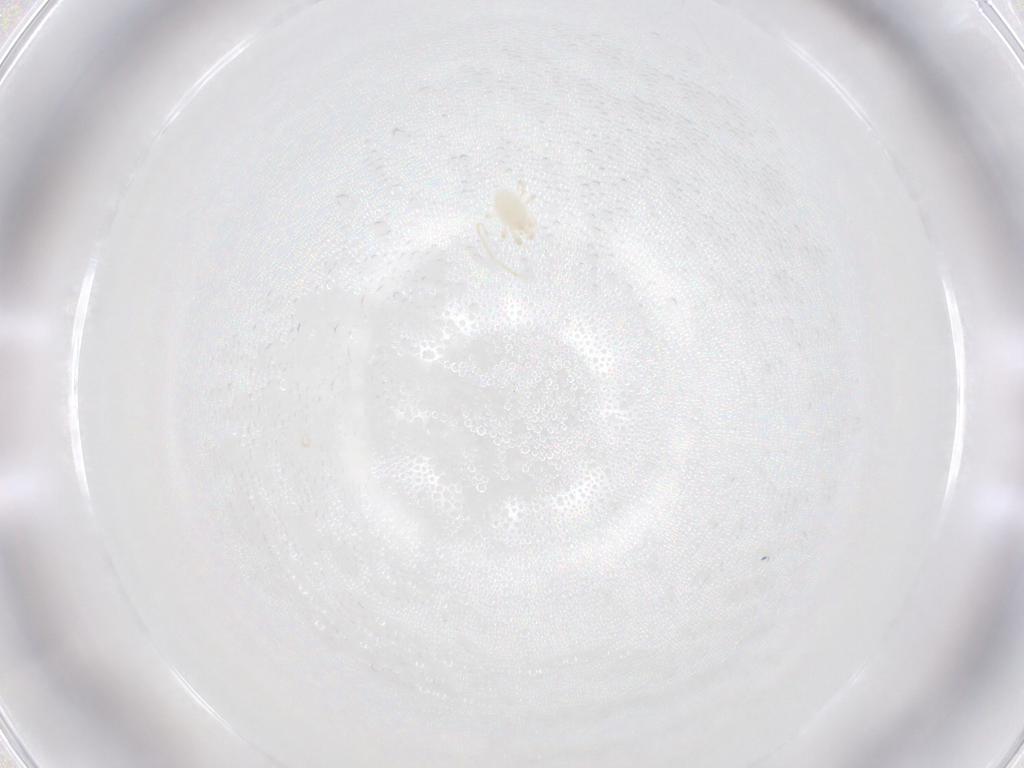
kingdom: Animalia
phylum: Arthropoda
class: Arachnida
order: Mesostigmata
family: Phytoseiidae
